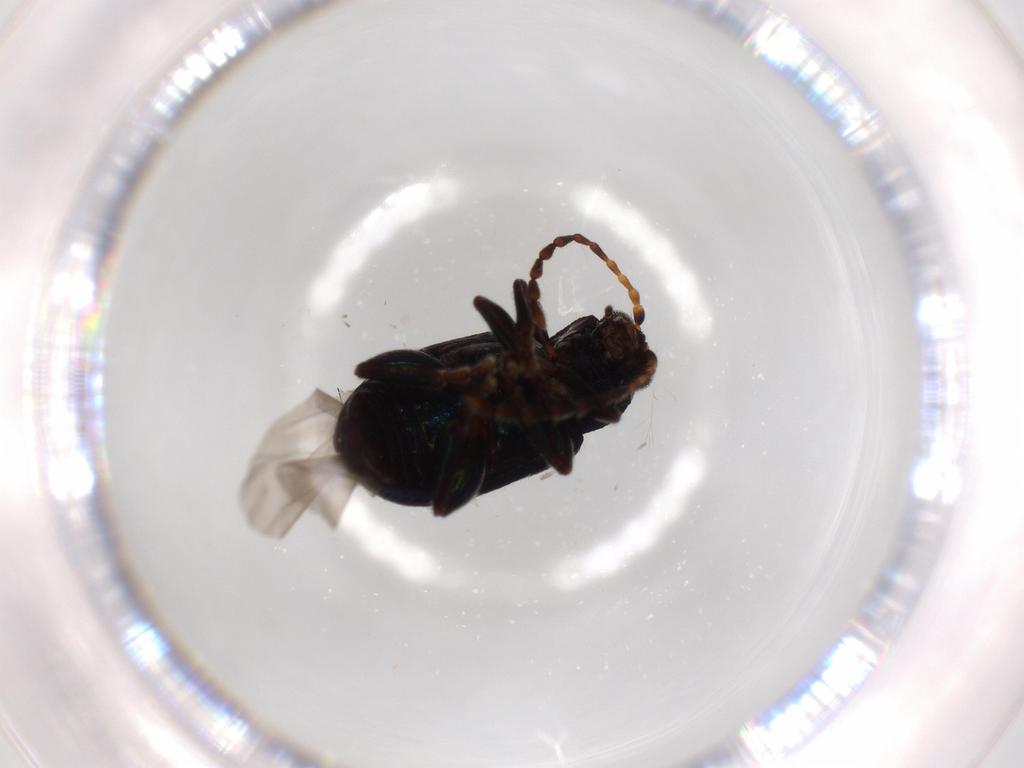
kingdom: Animalia
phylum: Arthropoda
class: Insecta
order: Coleoptera
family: Chrysomelidae
